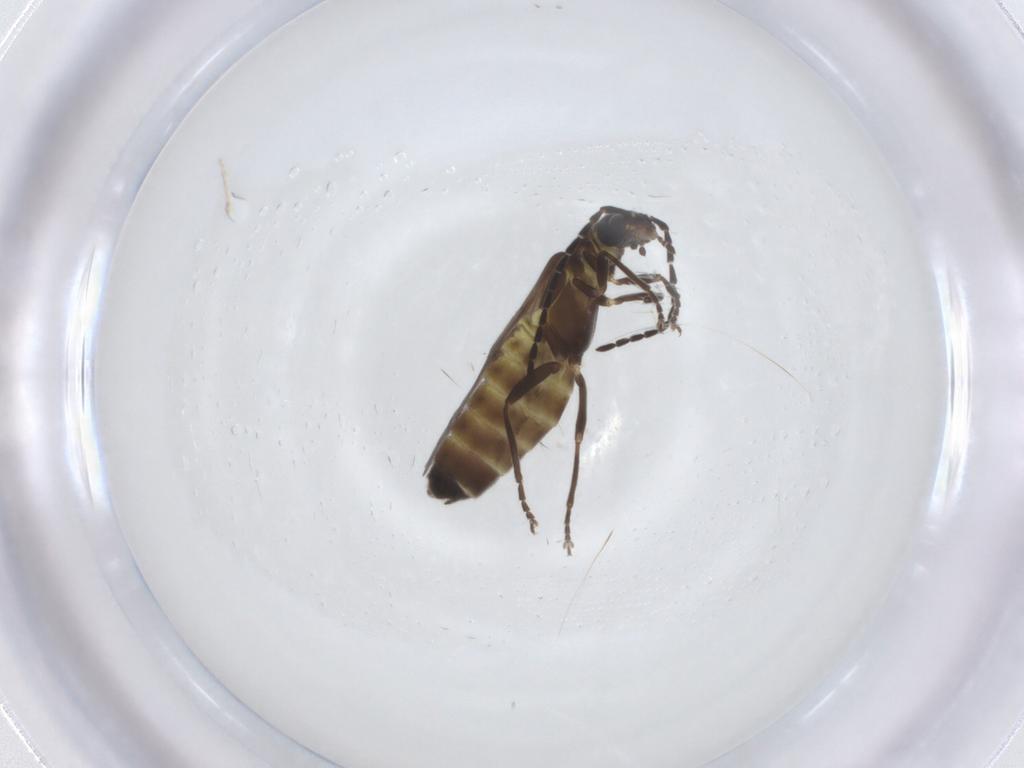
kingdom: Animalia
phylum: Arthropoda
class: Insecta
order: Coleoptera
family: Cantharidae
